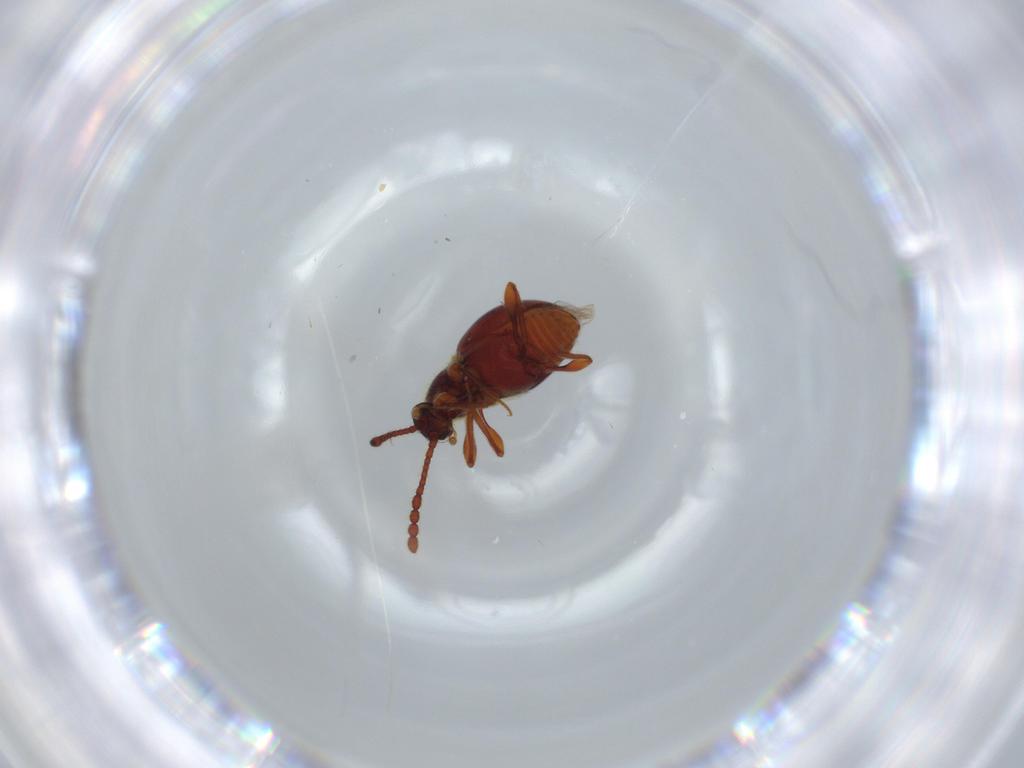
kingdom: Animalia
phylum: Arthropoda
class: Insecta
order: Coleoptera
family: Staphylinidae
